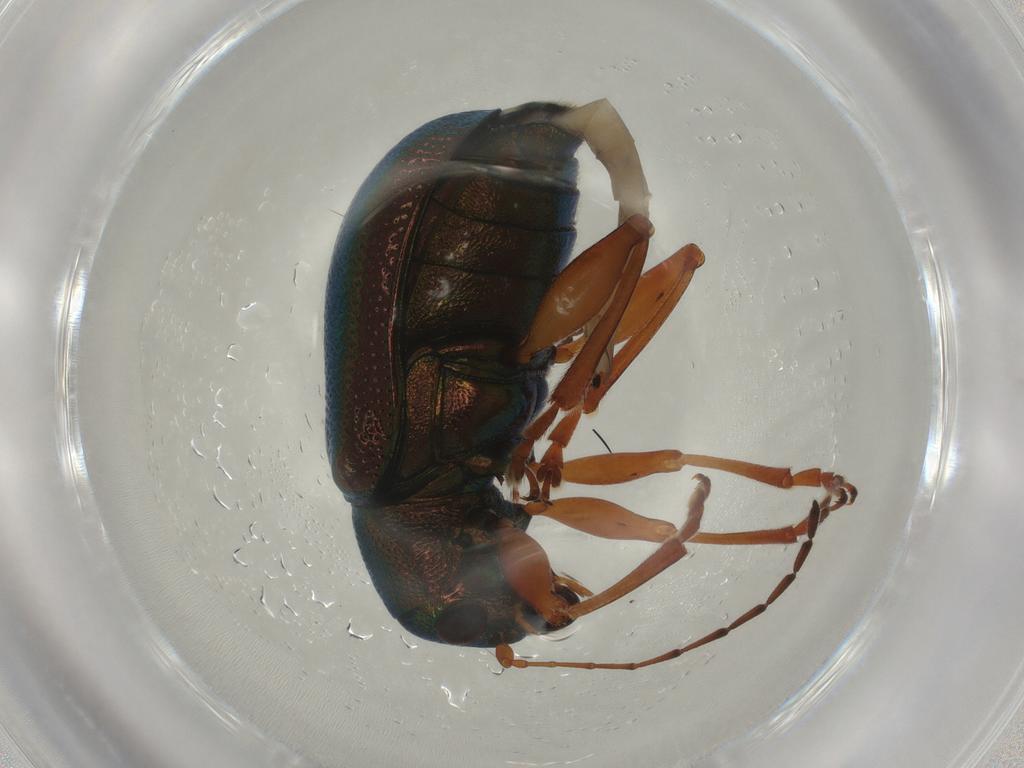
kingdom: Animalia
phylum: Arthropoda
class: Insecta
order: Coleoptera
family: Chrysomelidae
